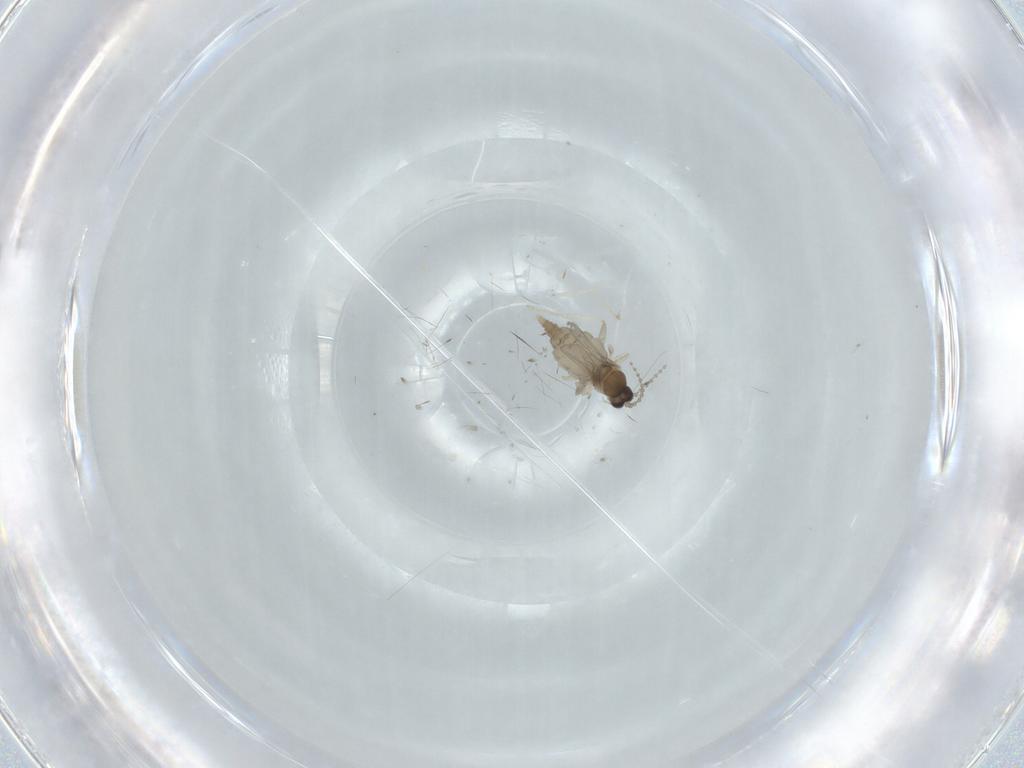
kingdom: Animalia
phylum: Arthropoda
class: Insecta
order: Diptera
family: Cecidomyiidae
